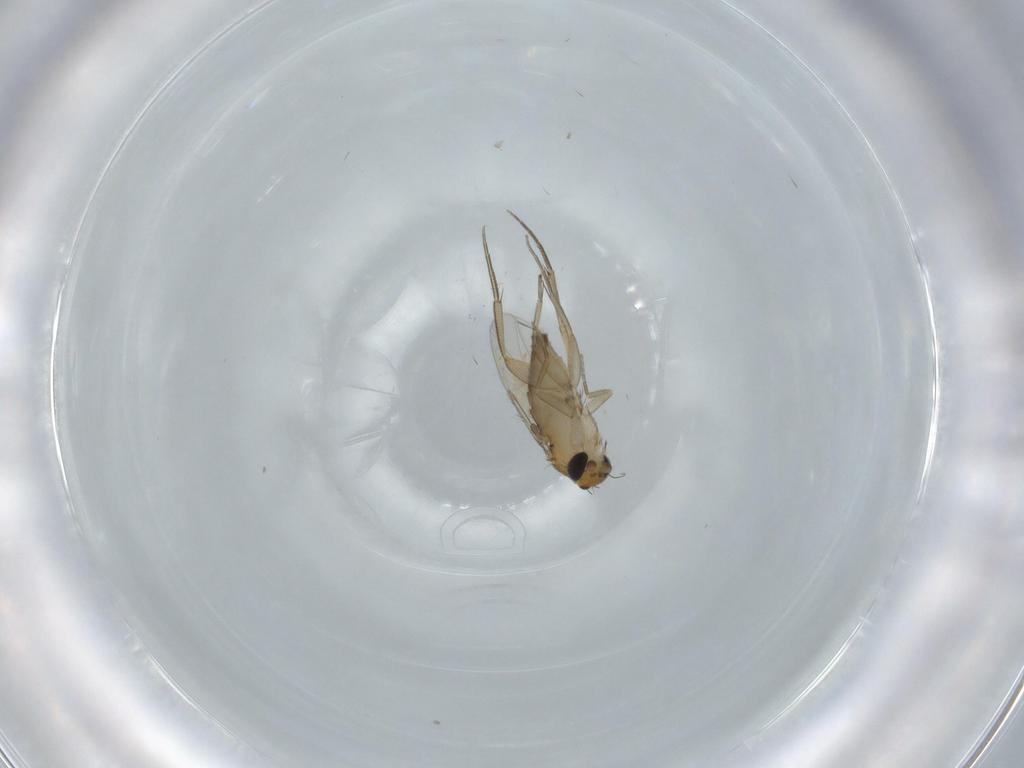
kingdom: Animalia
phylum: Arthropoda
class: Insecta
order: Diptera
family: Phoridae
